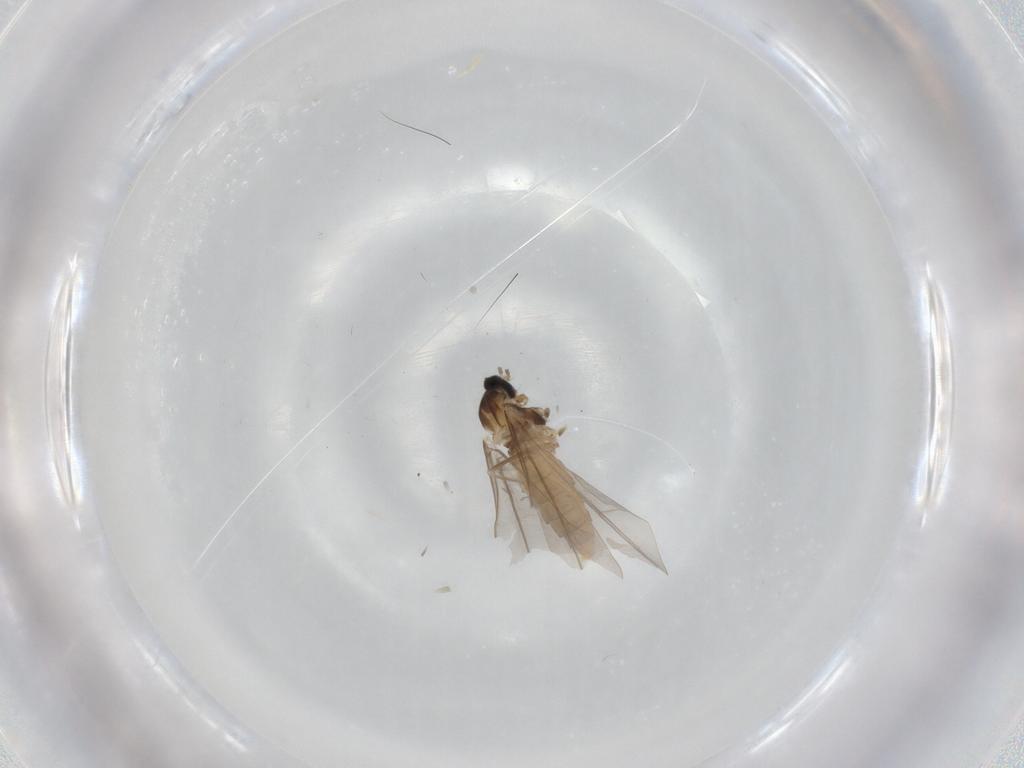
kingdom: Animalia
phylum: Arthropoda
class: Insecta
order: Diptera
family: Cecidomyiidae
